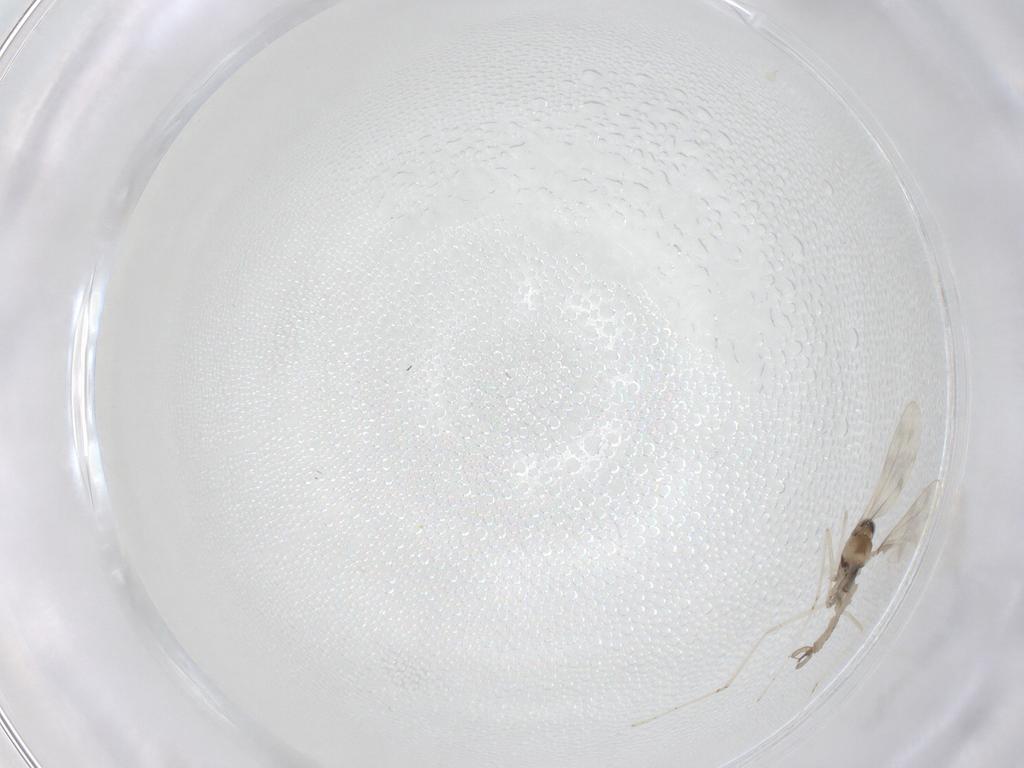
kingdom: Animalia
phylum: Arthropoda
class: Insecta
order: Diptera
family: Cecidomyiidae
